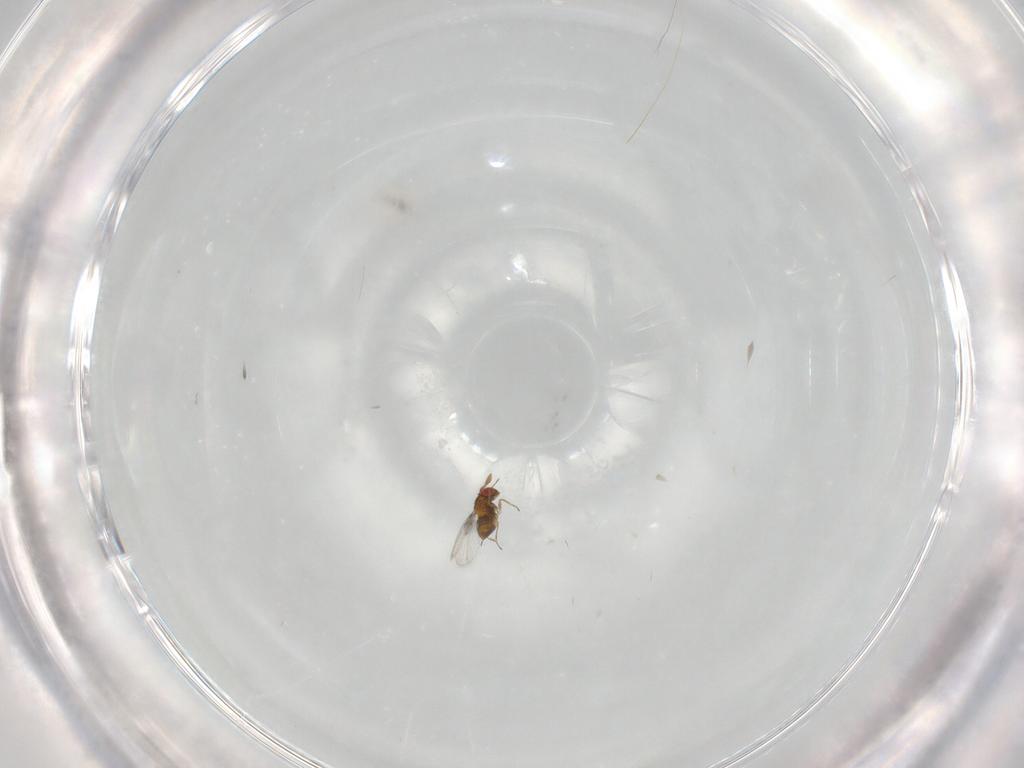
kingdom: Animalia
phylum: Arthropoda
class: Insecta
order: Hymenoptera
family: Trichogrammatidae
